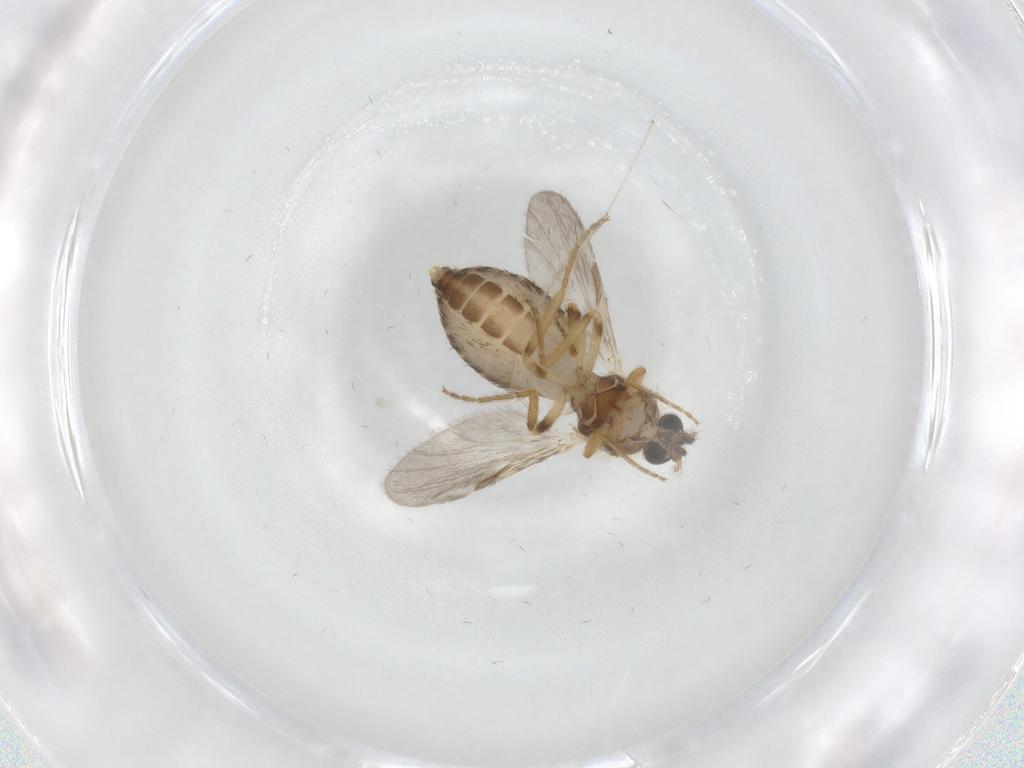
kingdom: Animalia
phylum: Arthropoda
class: Insecta
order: Diptera
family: Ceratopogonidae
